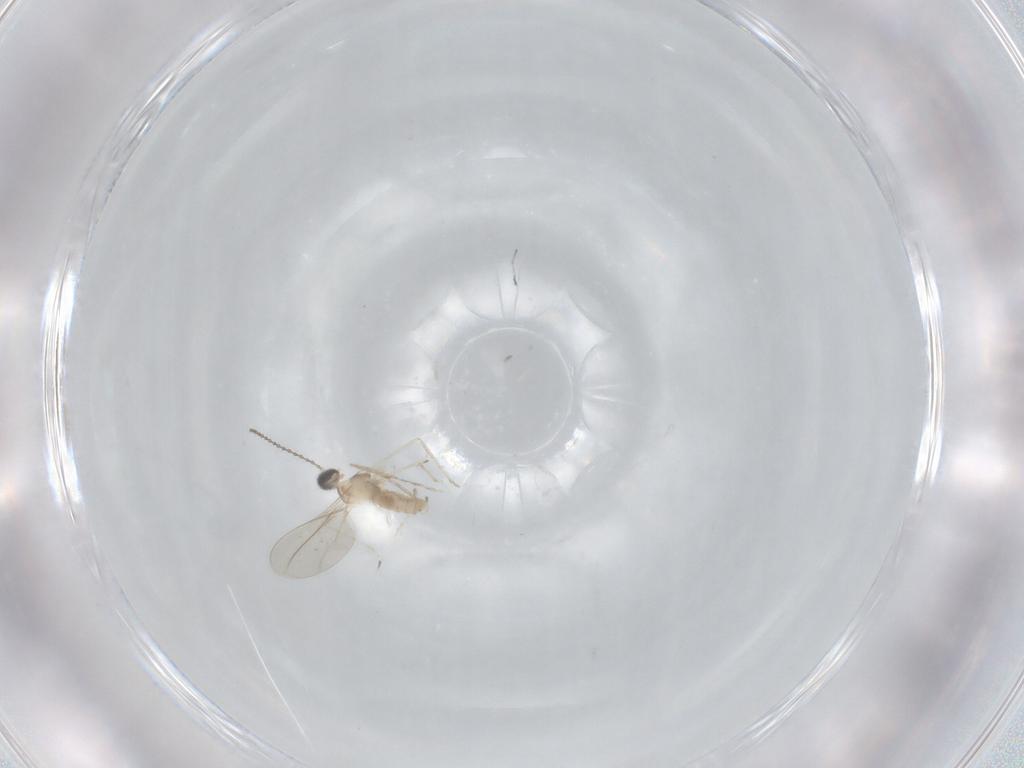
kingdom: Animalia
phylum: Arthropoda
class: Insecta
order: Diptera
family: Cecidomyiidae
